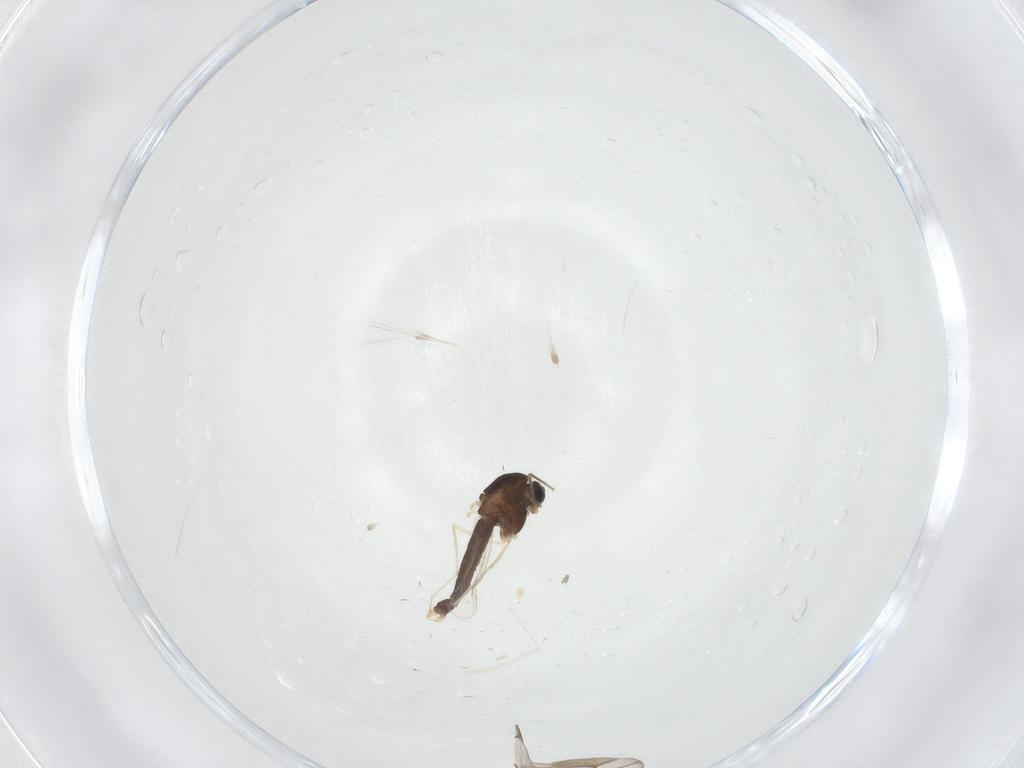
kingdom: Animalia
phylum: Arthropoda
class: Insecta
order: Diptera
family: Chironomidae
